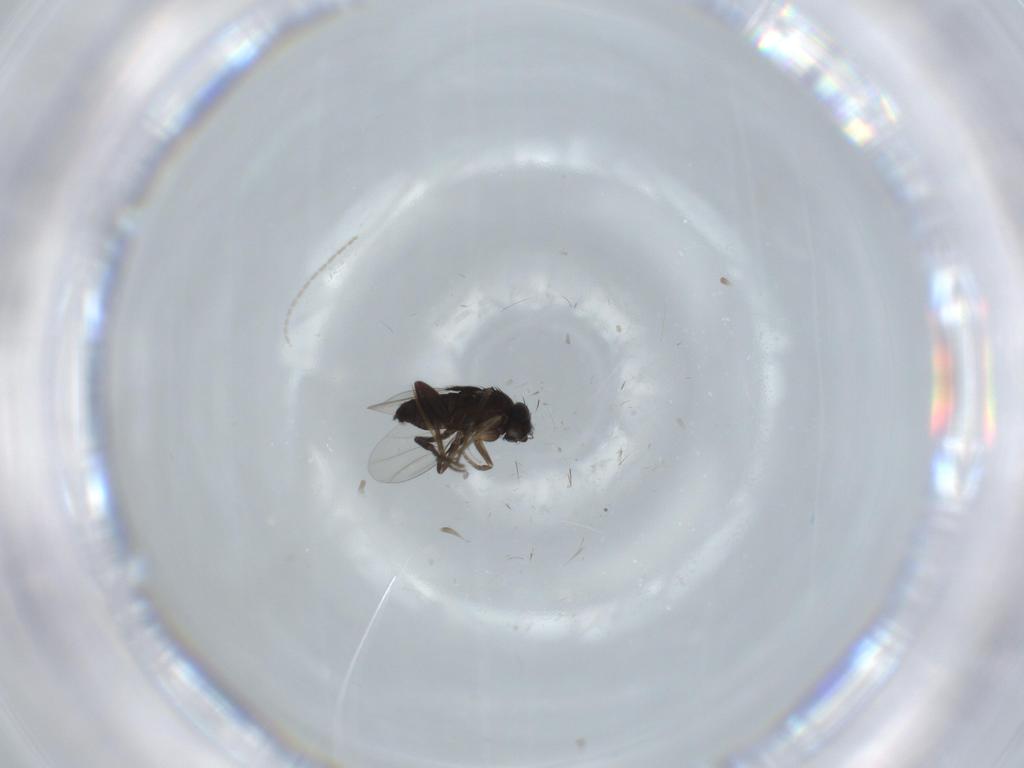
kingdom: Animalia
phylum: Arthropoda
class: Insecta
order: Diptera
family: Phoridae
